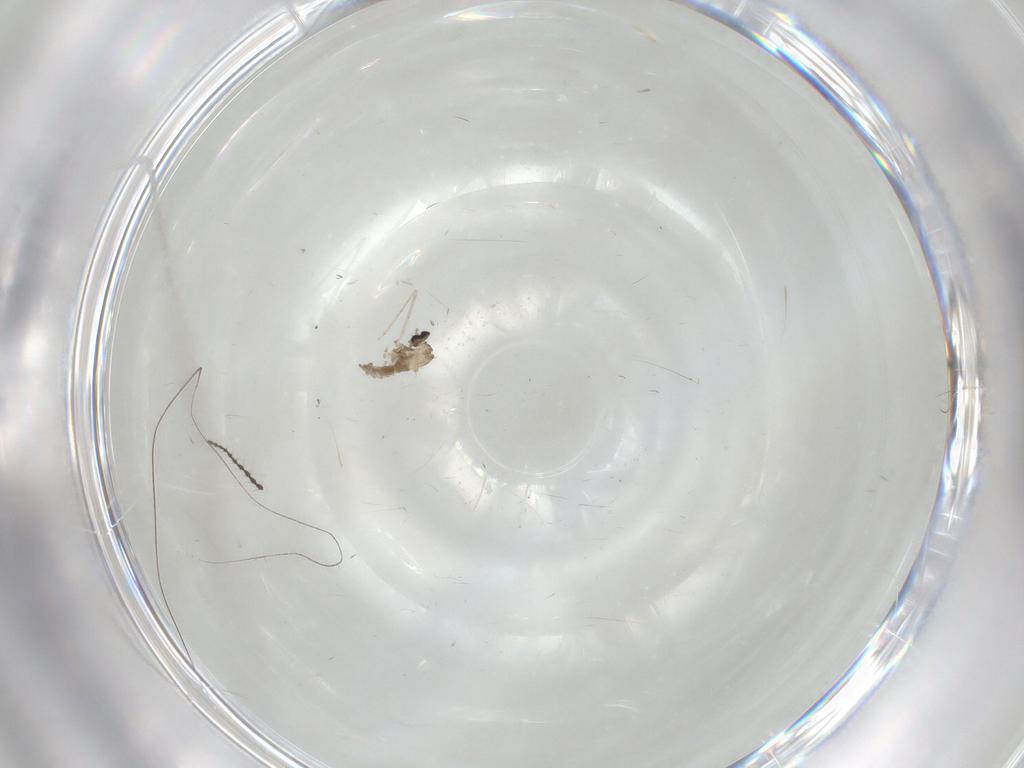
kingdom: Animalia
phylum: Arthropoda
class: Insecta
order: Diptera
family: Limoniidae
